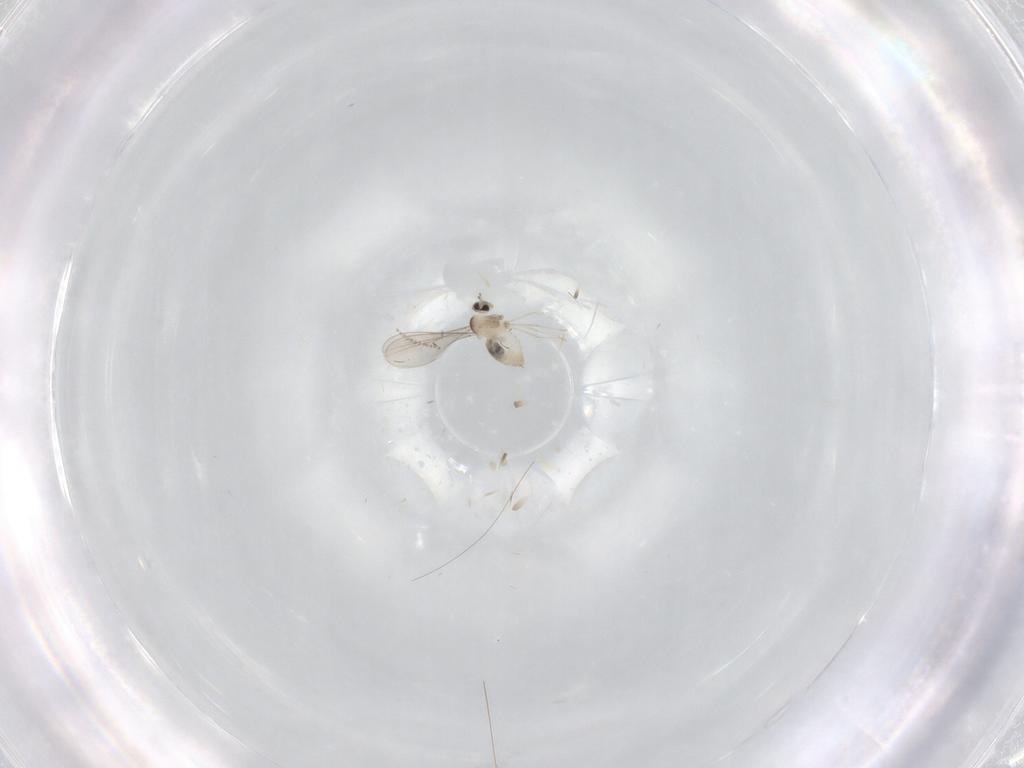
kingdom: Animalia
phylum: Arthropoda
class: Insecta
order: Diptera
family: Cecidomyiidae
